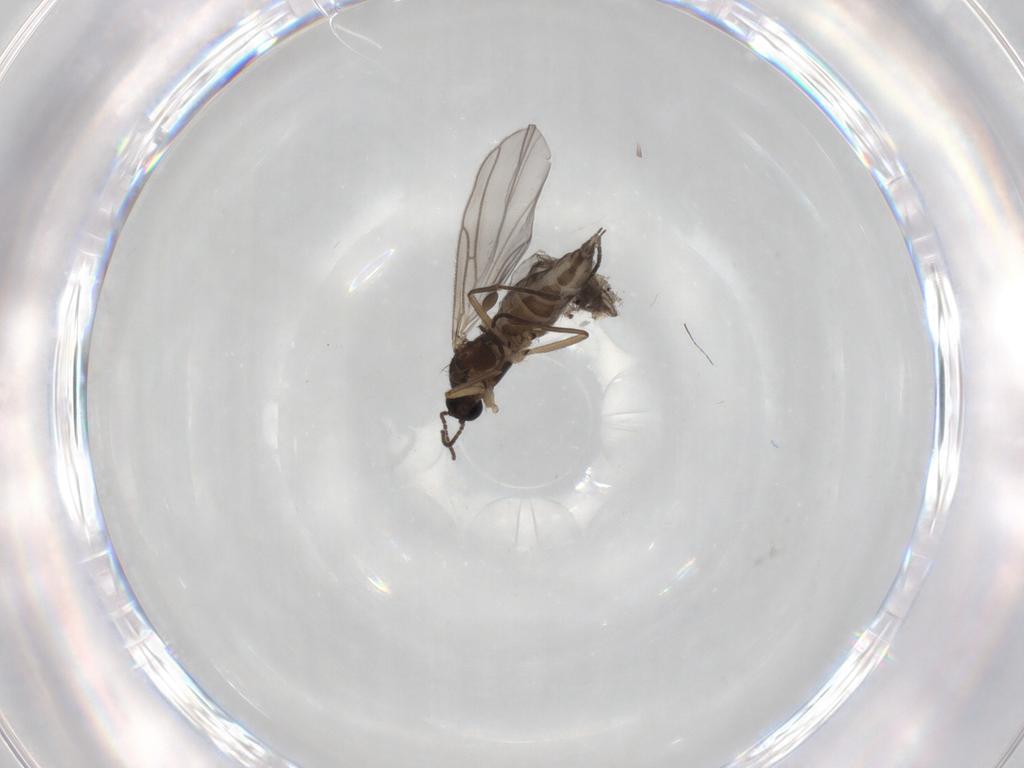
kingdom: Animalia
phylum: Arthropoda
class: Insecta
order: Diptera
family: Sciaridae
